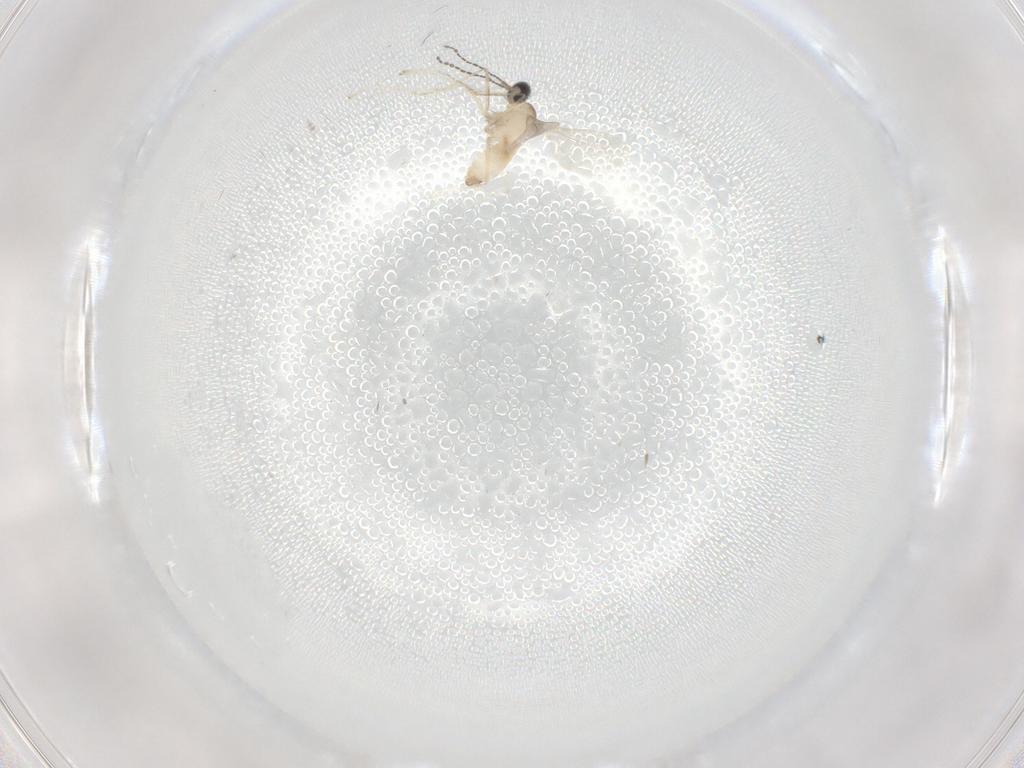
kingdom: Animalia
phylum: Arthropoda
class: Insecta
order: Diptera
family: Cecidomyiidae
